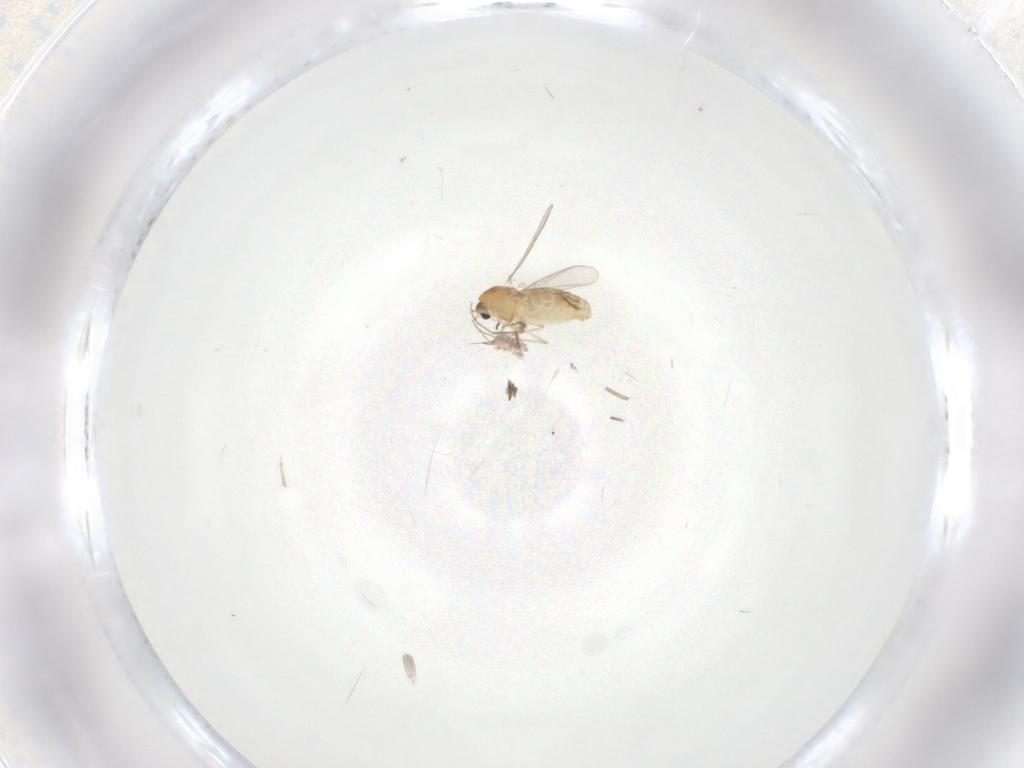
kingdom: Animalia
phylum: Arthropoda
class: Insecta
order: Diptera
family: Chironomidae
